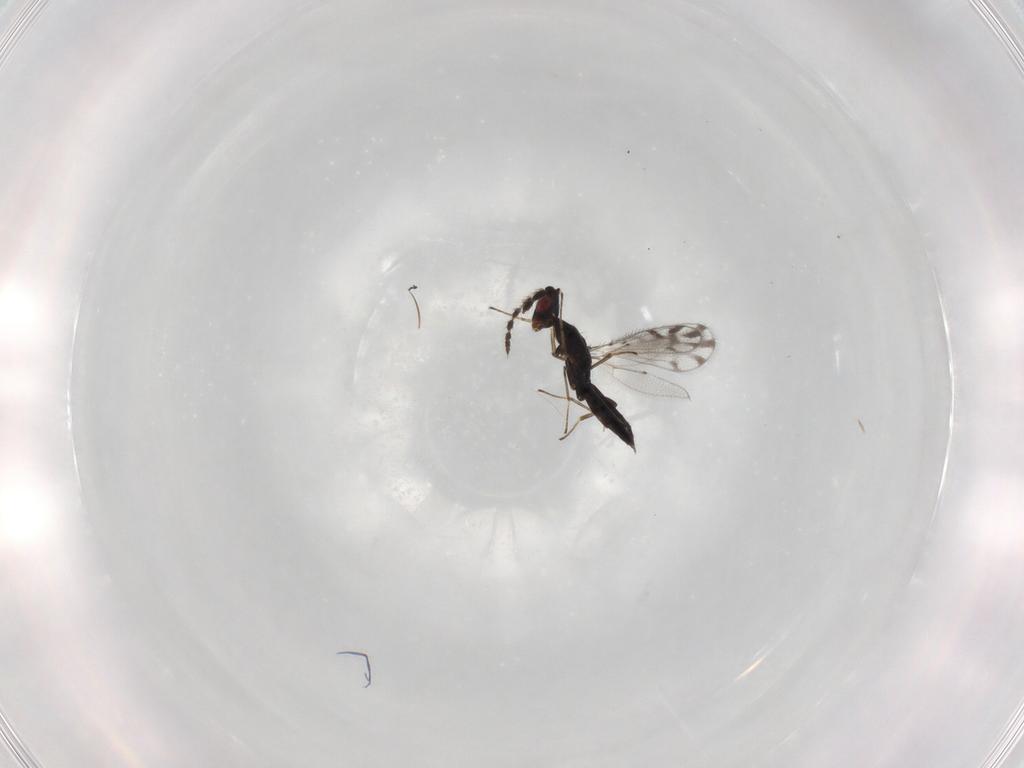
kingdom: Animalia
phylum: Arthropoda
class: Insecta
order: Hymenoptera
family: Eulophidae
